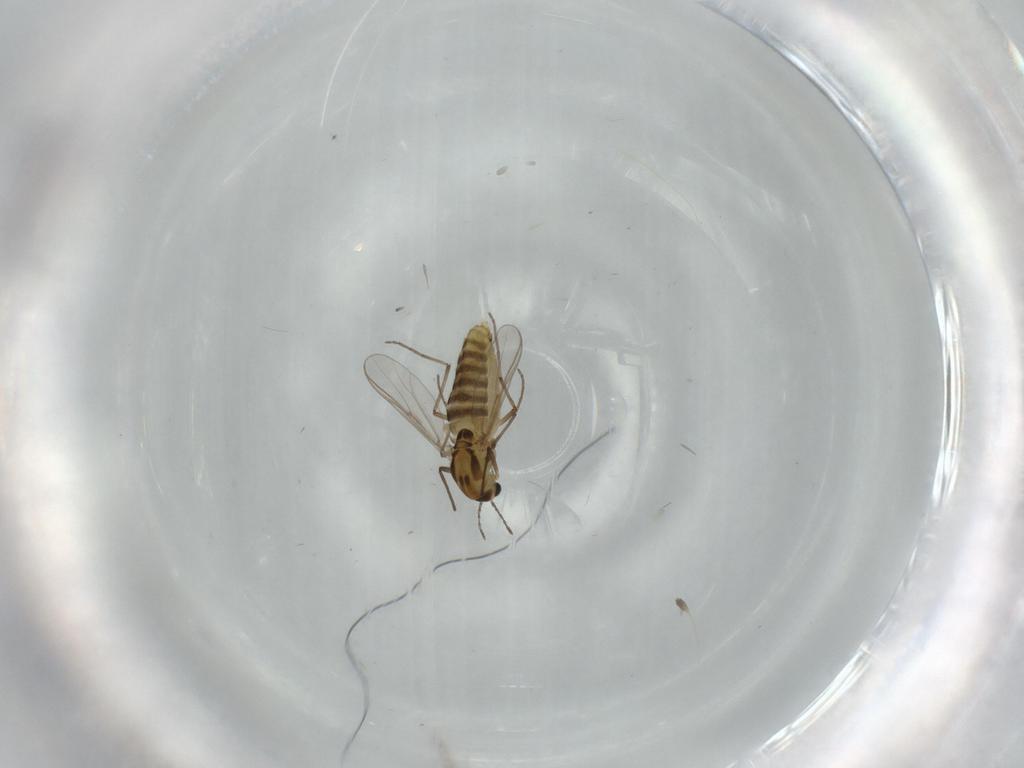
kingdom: Animalia
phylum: Arthropoda
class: Insecta
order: Diptera
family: Chironomidae
